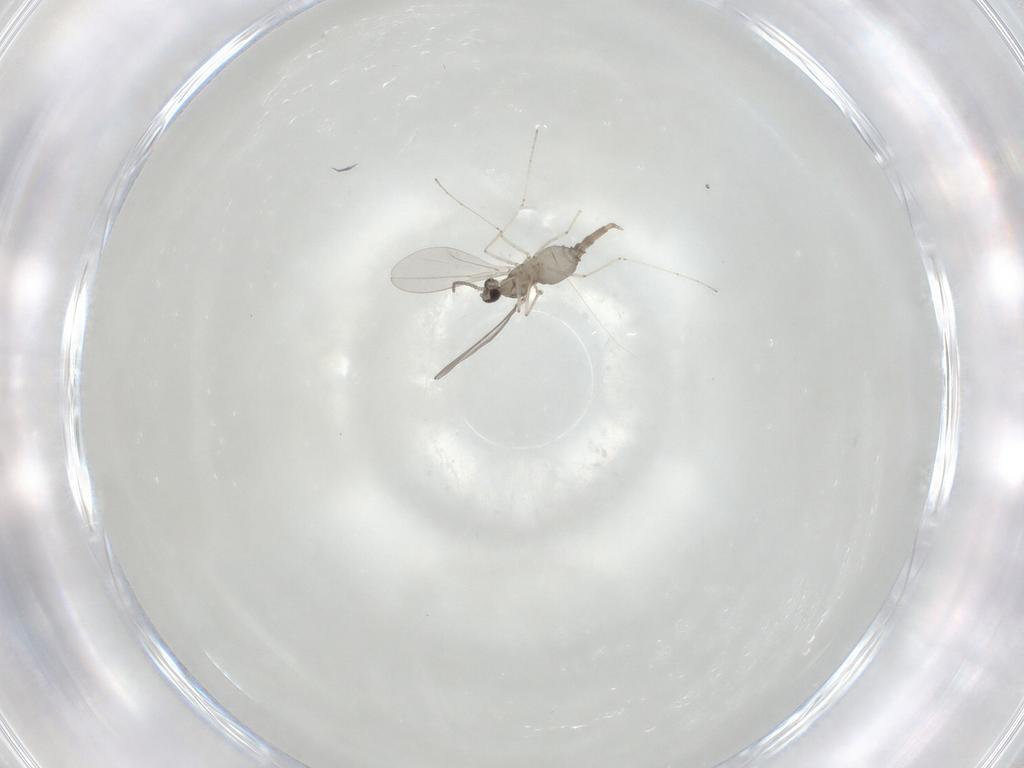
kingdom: Animalia
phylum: Arthropoda
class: Insecta
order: Diptera
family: Cecidomyiidae
